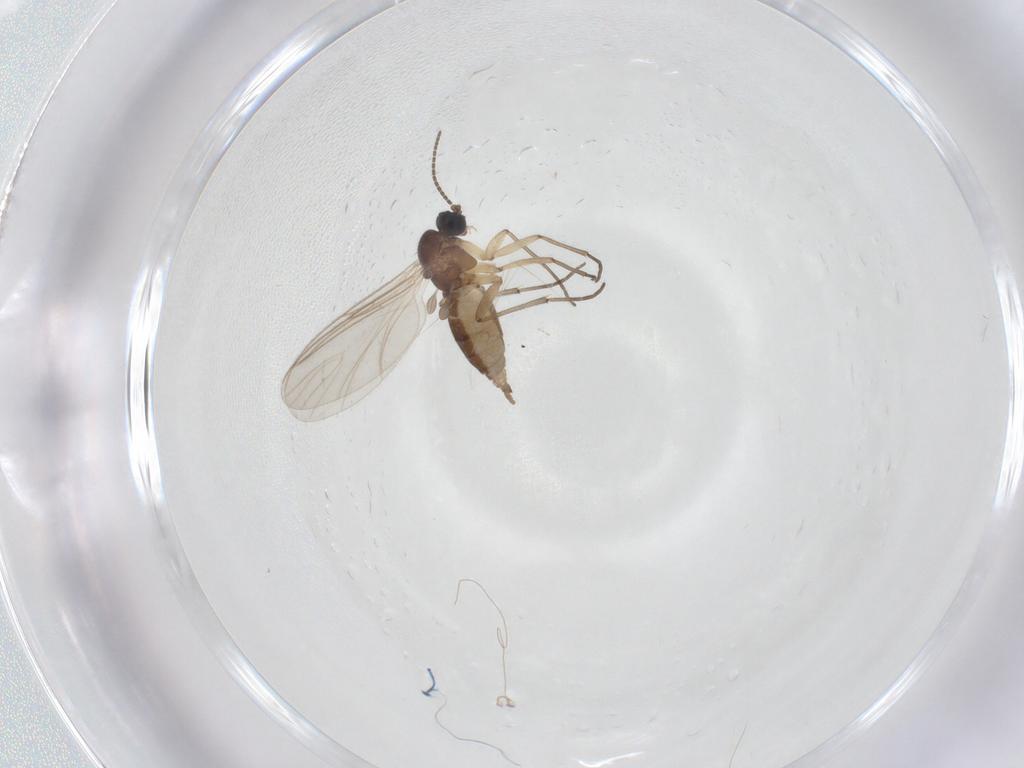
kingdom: Animalia
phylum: Arthropoda
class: Insecta
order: Diptera
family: Sciaridae
